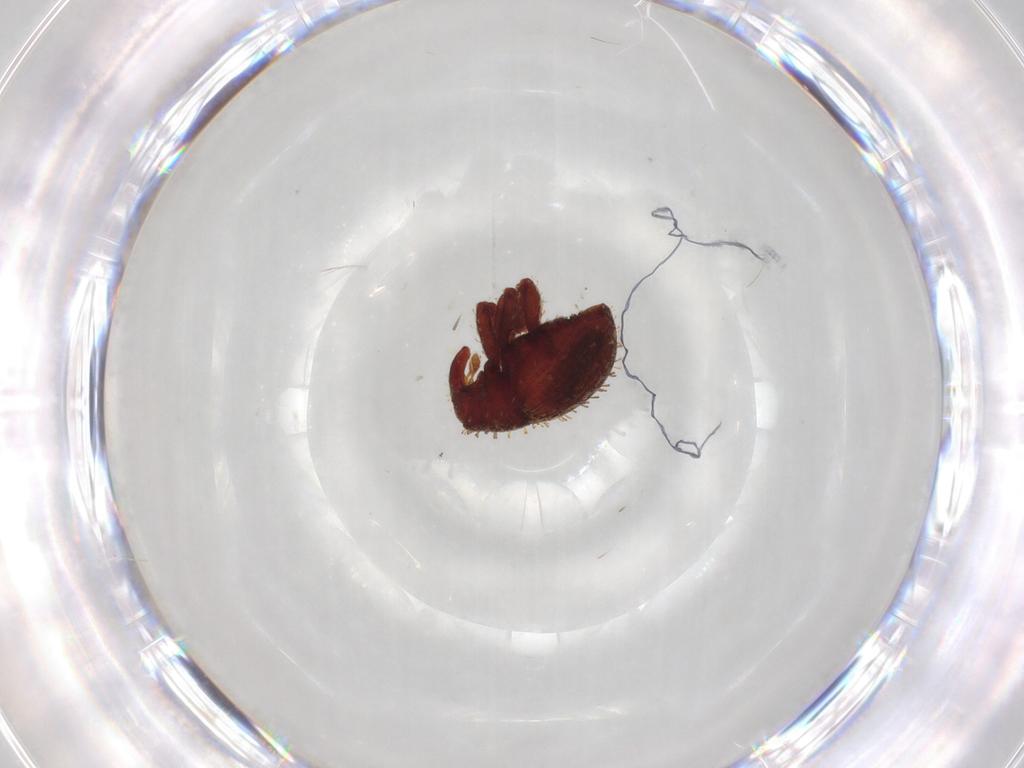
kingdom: Animalia
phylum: Arthropoda
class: Insecta
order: Coleoptera
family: Curculionidae
